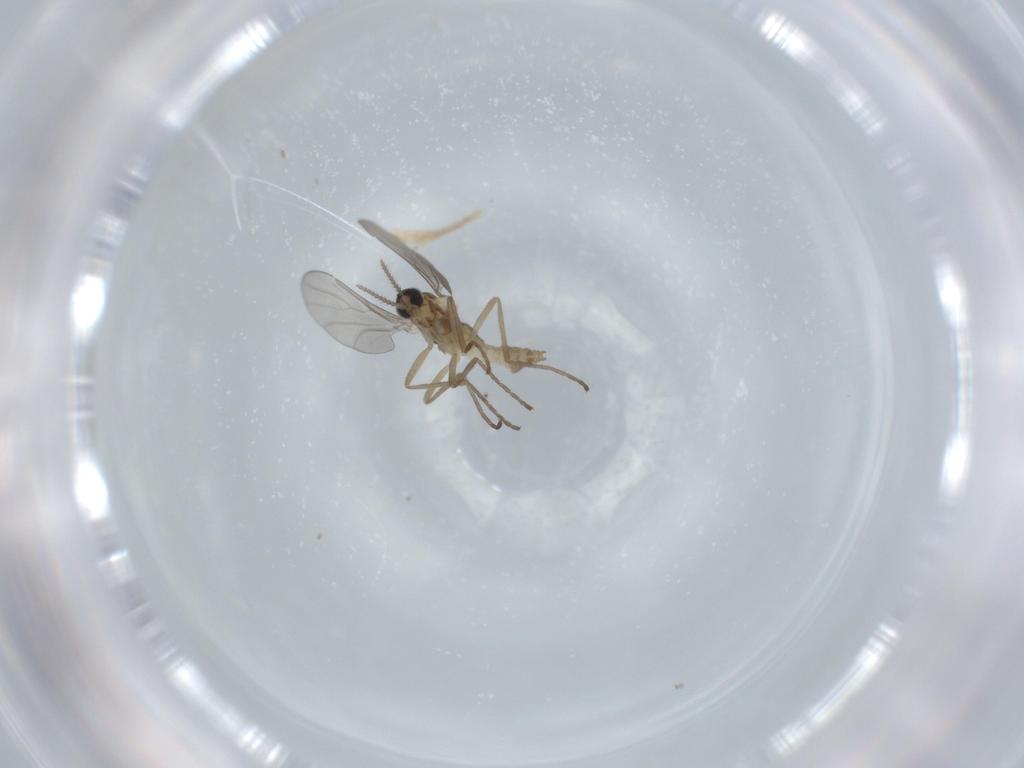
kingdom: Animalia
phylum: Arthropoda
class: Insecta
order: Diptera
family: Cecidomyiidae
